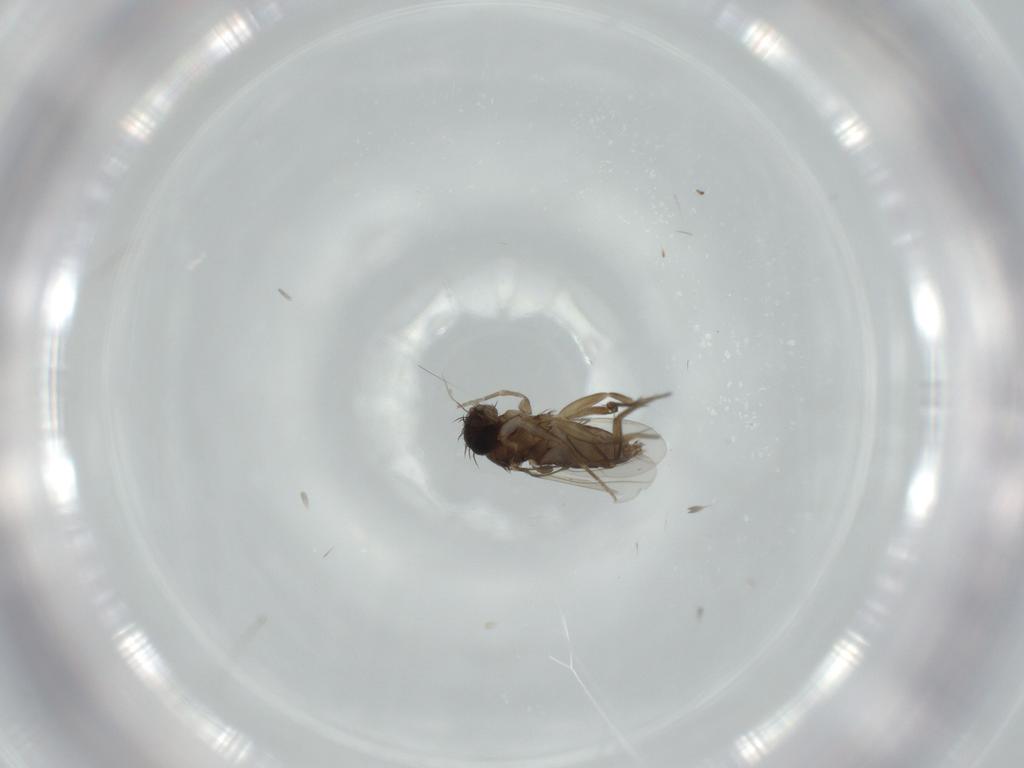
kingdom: Animalia
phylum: Arthropoda
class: Insecta
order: Diptera
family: Phoridae
